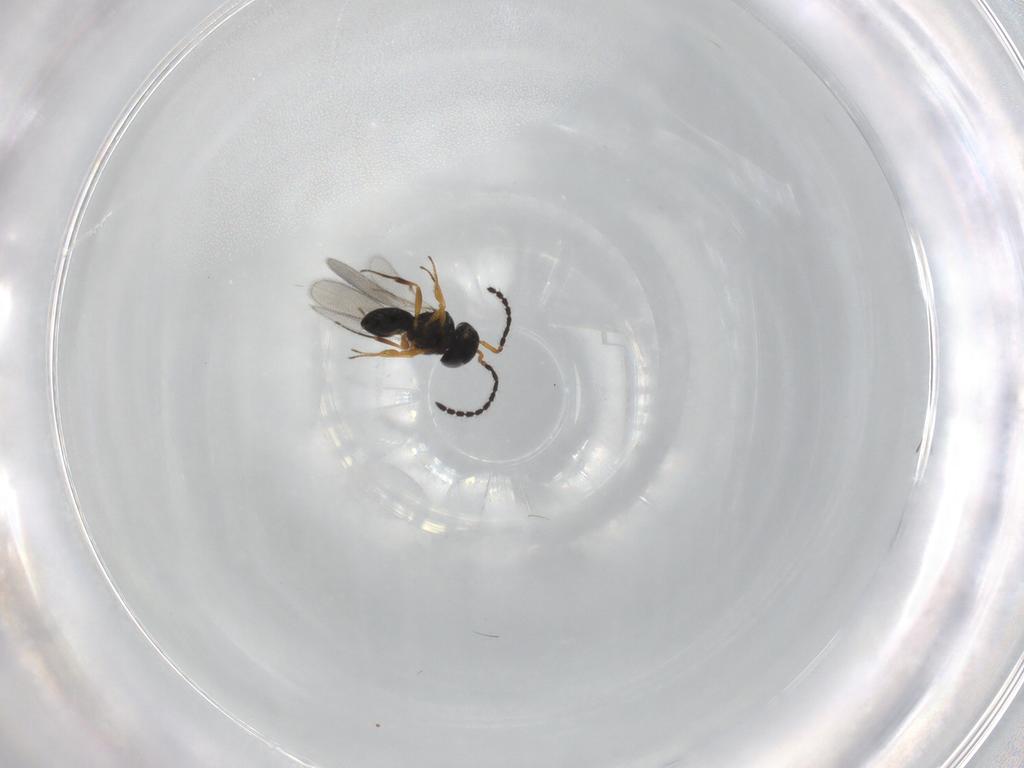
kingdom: Animalia
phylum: Arthropoda
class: Insecta
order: Hymenoptera
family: Scelionidae
